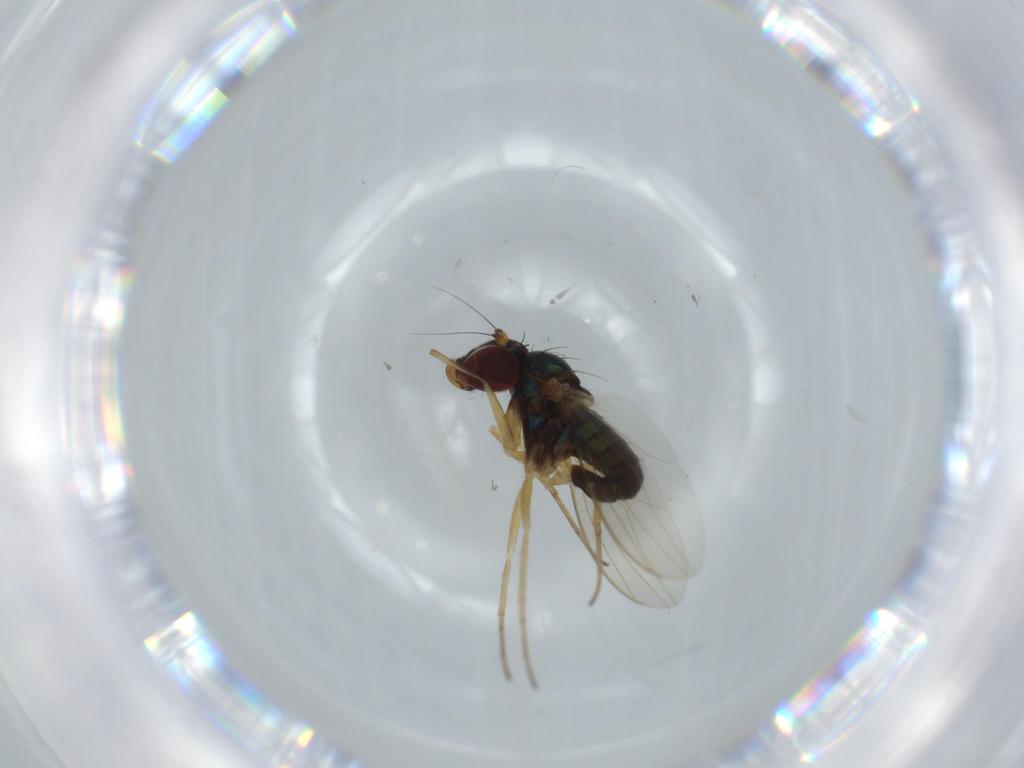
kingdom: Animalia
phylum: Arthropoda
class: Insecta
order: Diptera
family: Dolichopodidae
